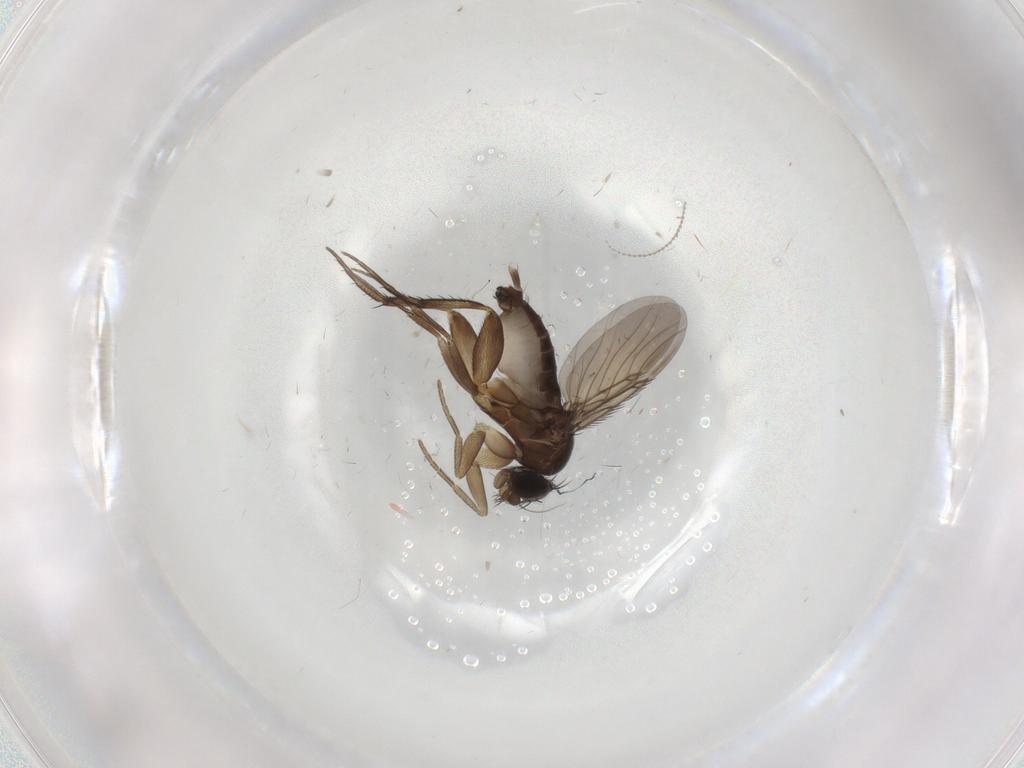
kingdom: Animalia
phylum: Arthropoda
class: Insecta
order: Diptera
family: Phoridae
